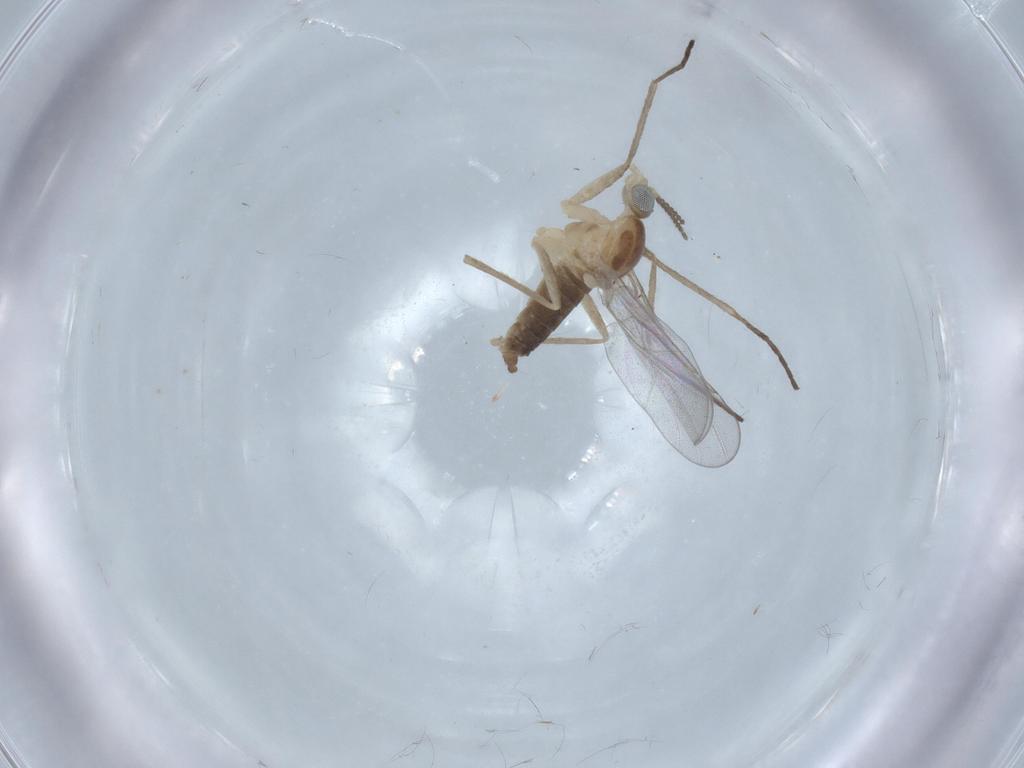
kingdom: Animalia
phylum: Arthropoda
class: Insecta
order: Diptera
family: Cecidomyiidae
